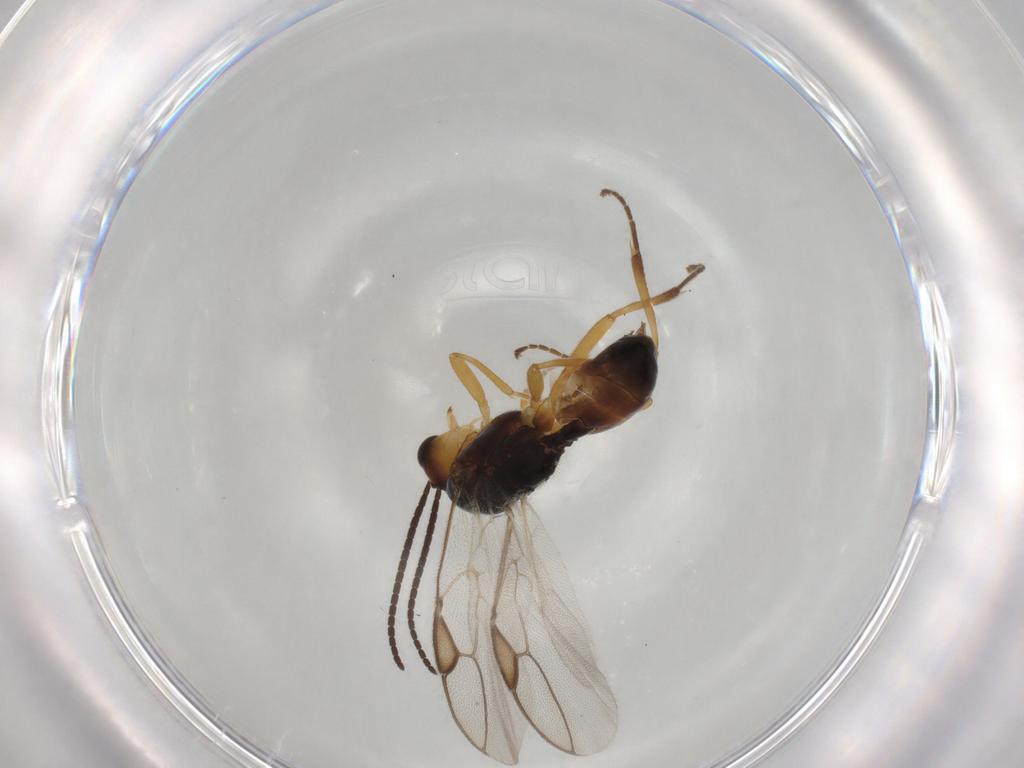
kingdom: Animalia
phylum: Arthropoda
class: Insecta
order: Hymenoptera
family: Braconidae
